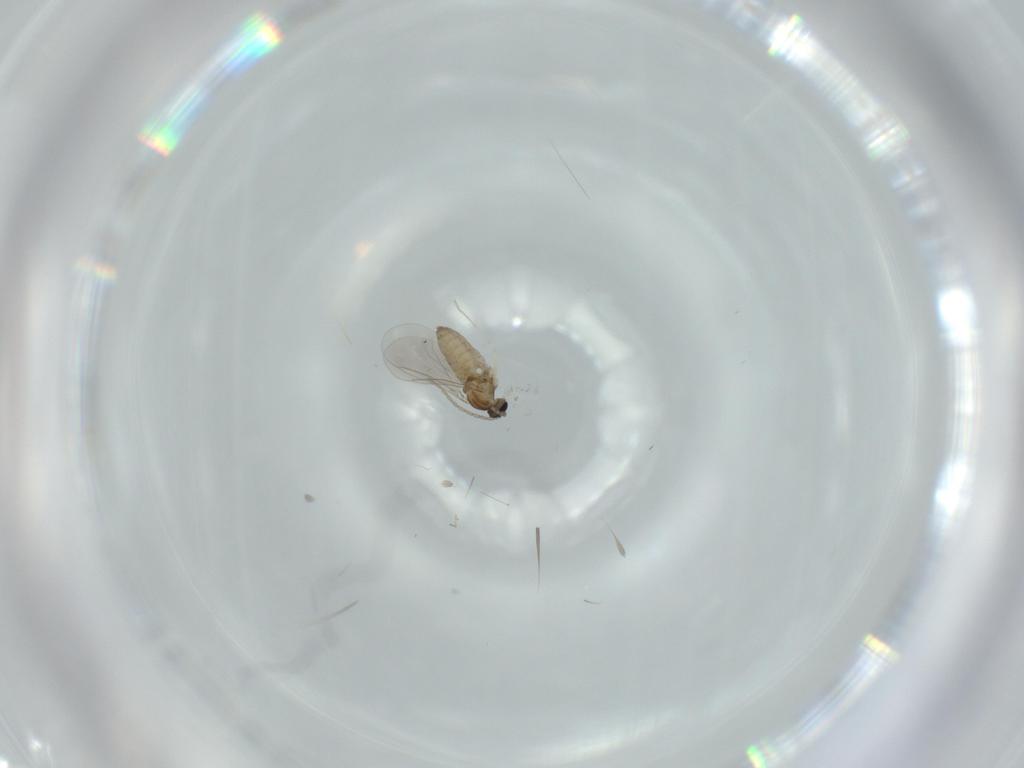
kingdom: Animalia
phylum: Arthropoda
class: Insecta
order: Diptera
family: Cecidomyiidae
